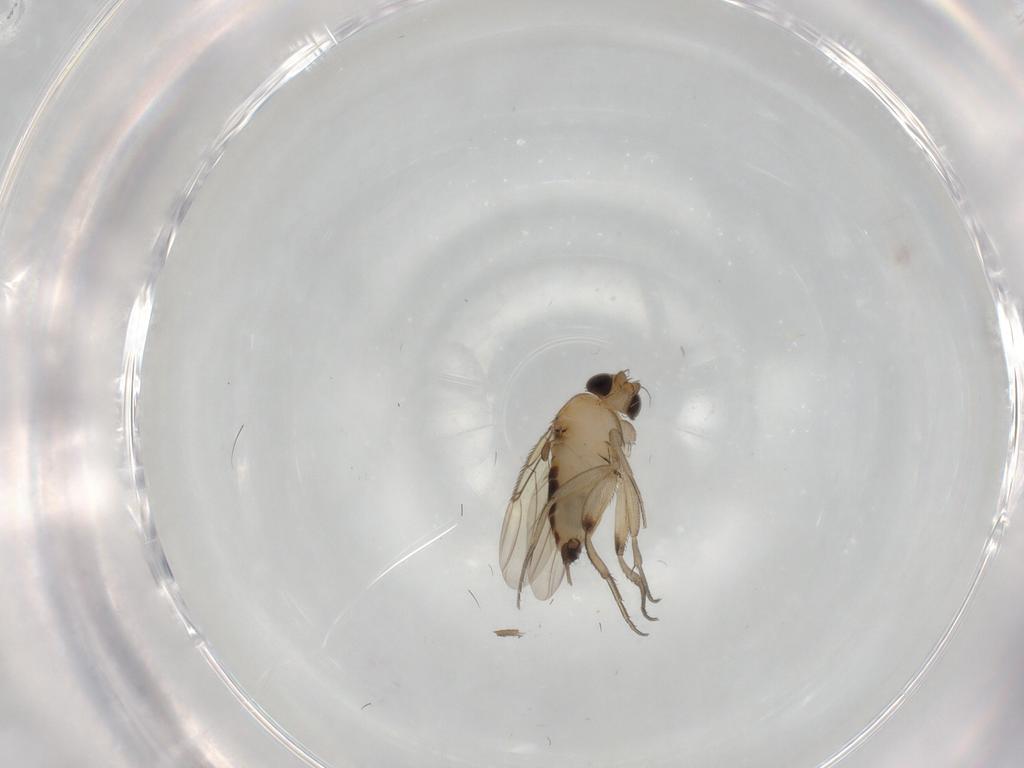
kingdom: Animalia
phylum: Arthropoda
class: Insecta
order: Diptera
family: Phoridae
